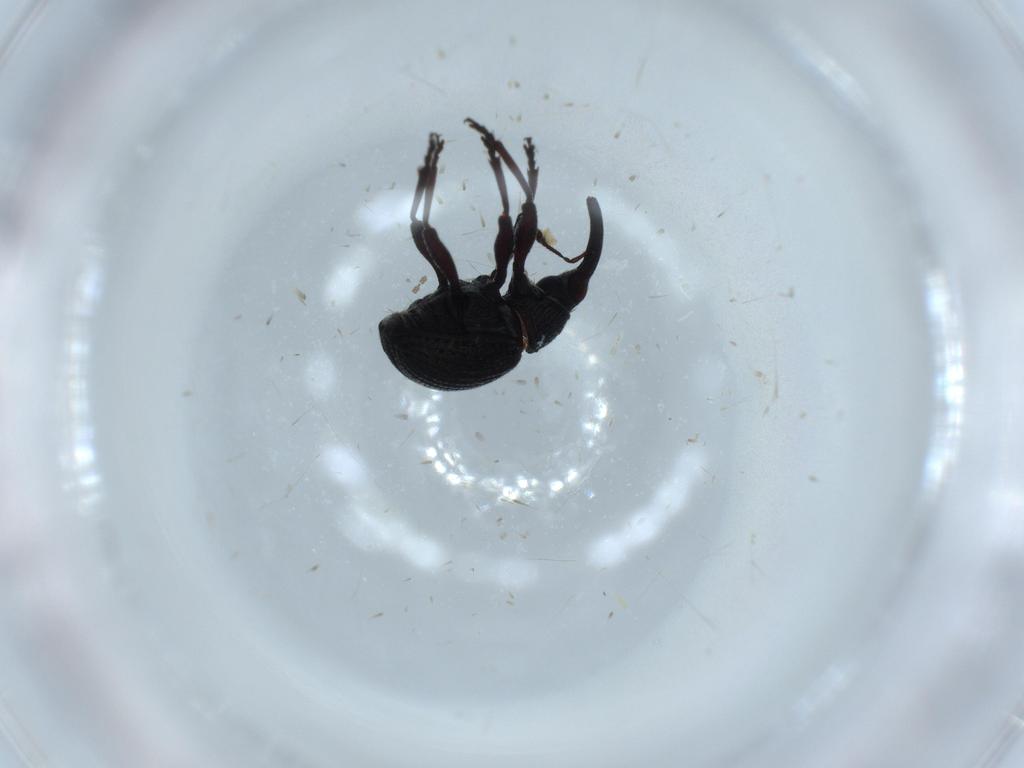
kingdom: Animalia
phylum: Arthropoda
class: Insecta
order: Coleoptera
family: Brentidae
